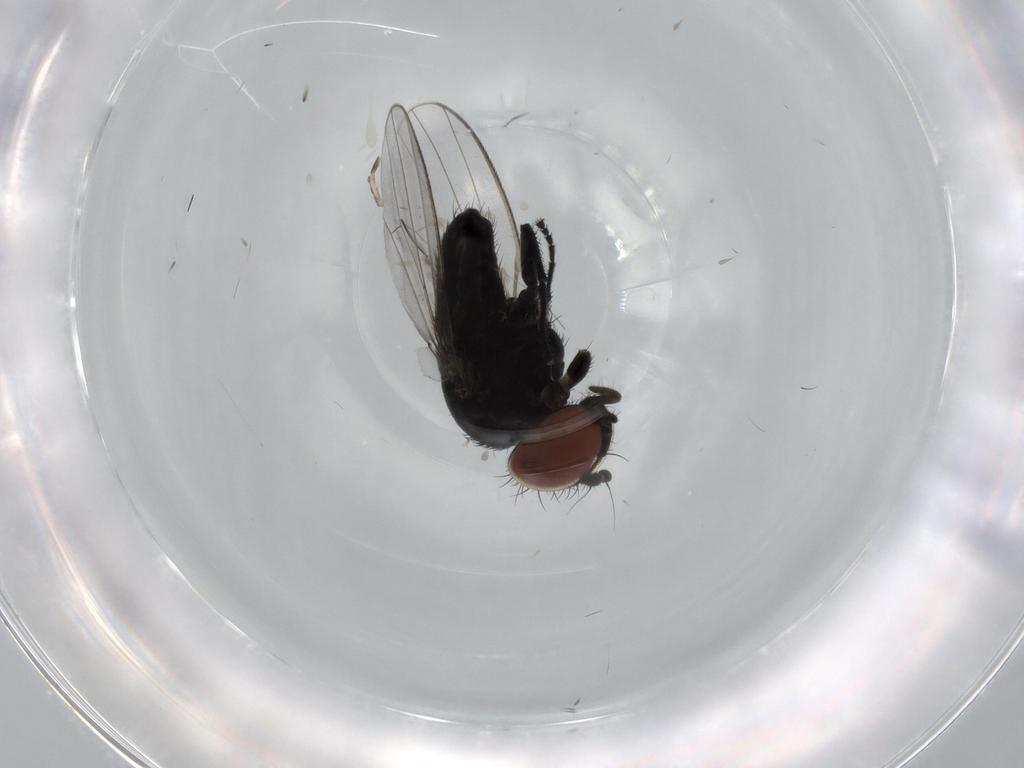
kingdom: Animalia
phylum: Arthropoda
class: Insecta
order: Diptera
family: Milichiidae
